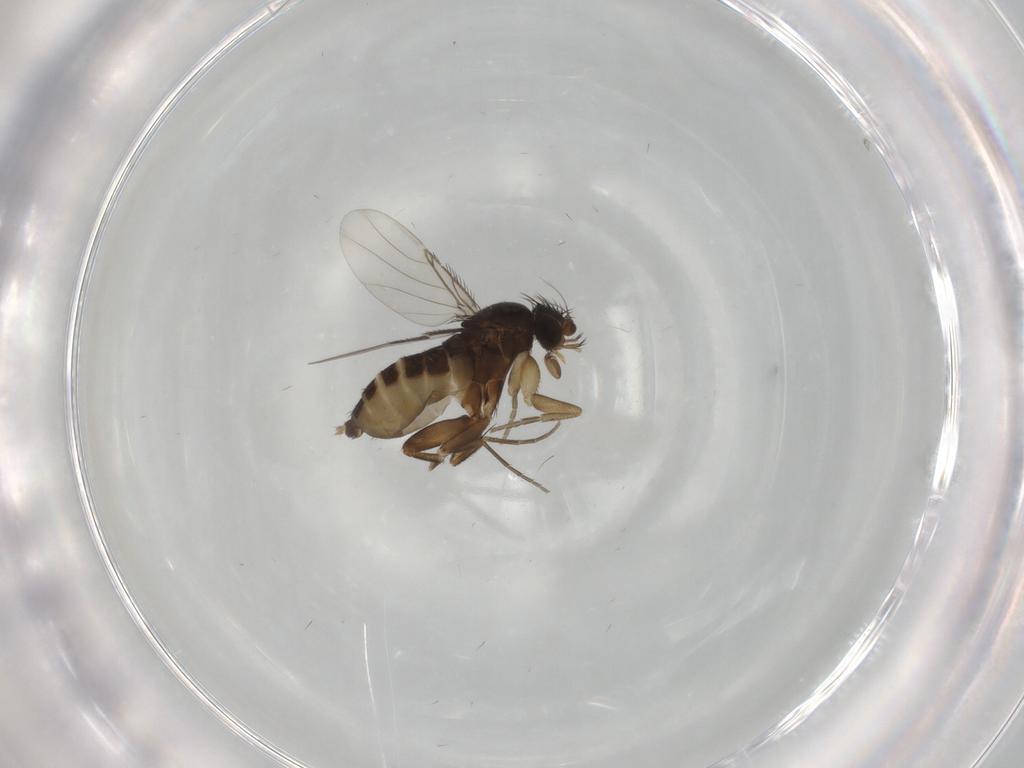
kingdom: Animalia
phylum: Arthropoda
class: Insecta
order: Diptera
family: Phoridae
